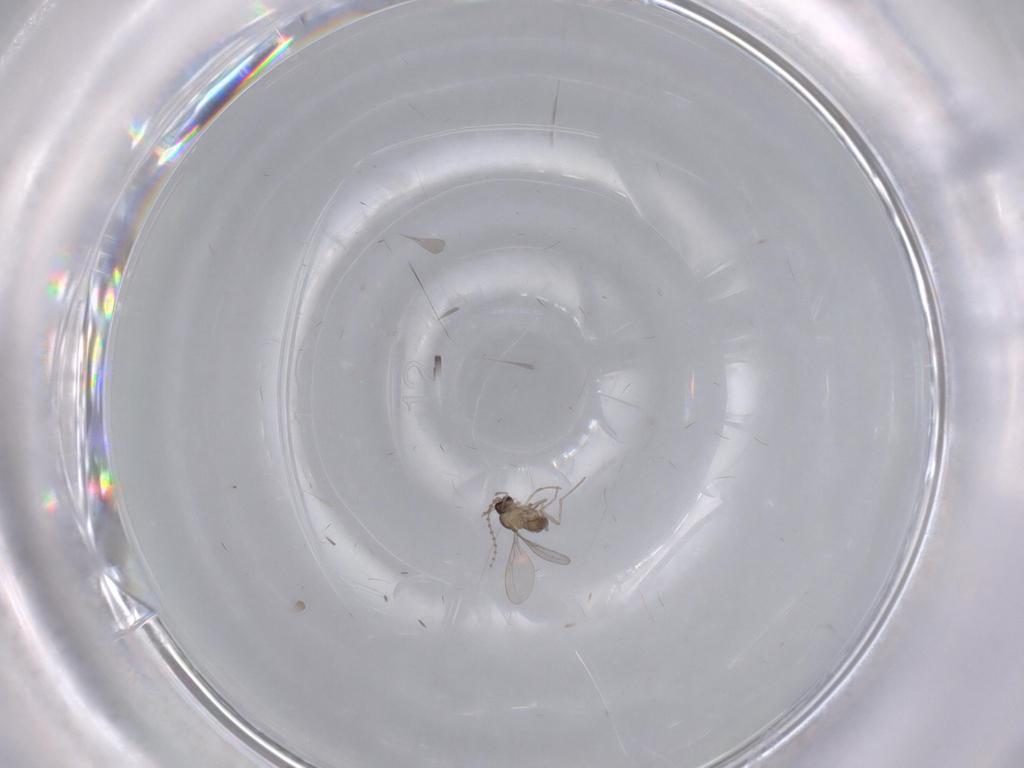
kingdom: Animalia
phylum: Arthropoda
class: Insecta
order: Diptera
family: Cecidomyiidae
